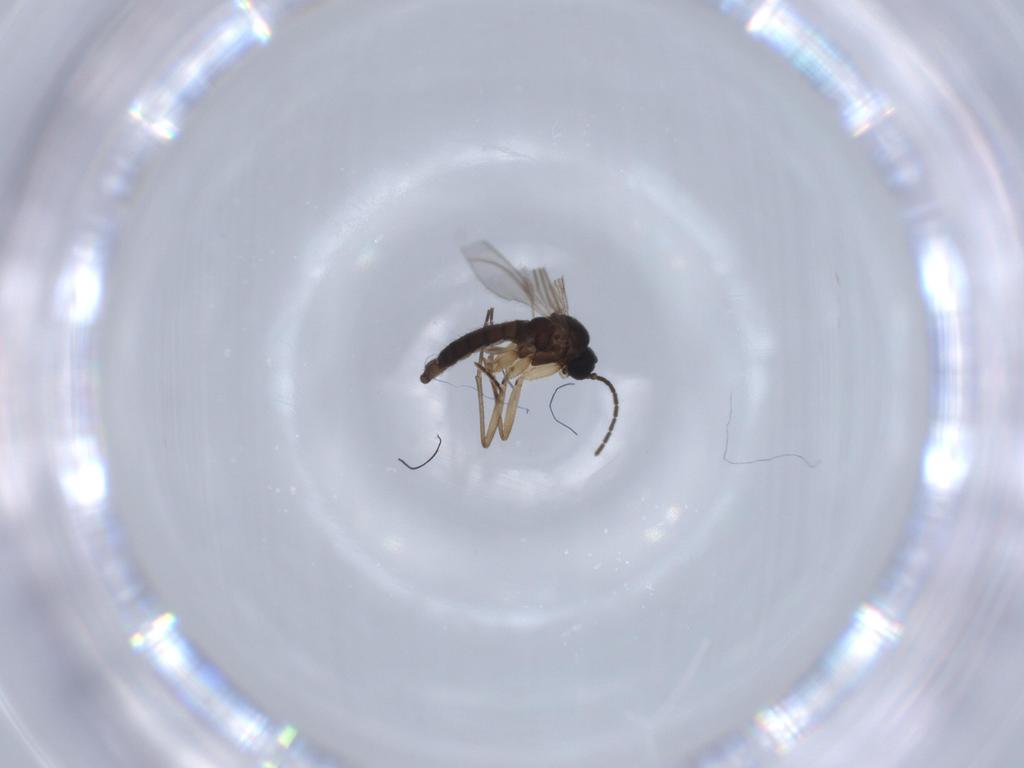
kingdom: Animalia
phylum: Arthropoda
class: Insecta
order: Diptera
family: Sciaridae
